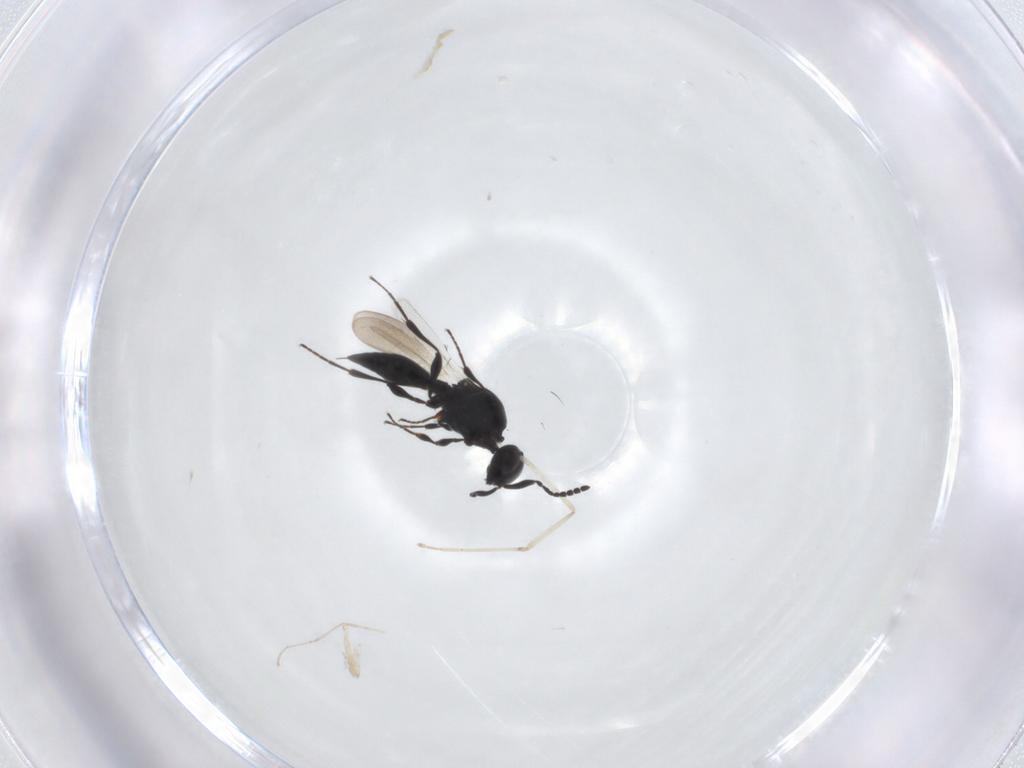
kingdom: Animalia
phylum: Arthropoda
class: Insecta
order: Hymenoptera
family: Platygastridae
